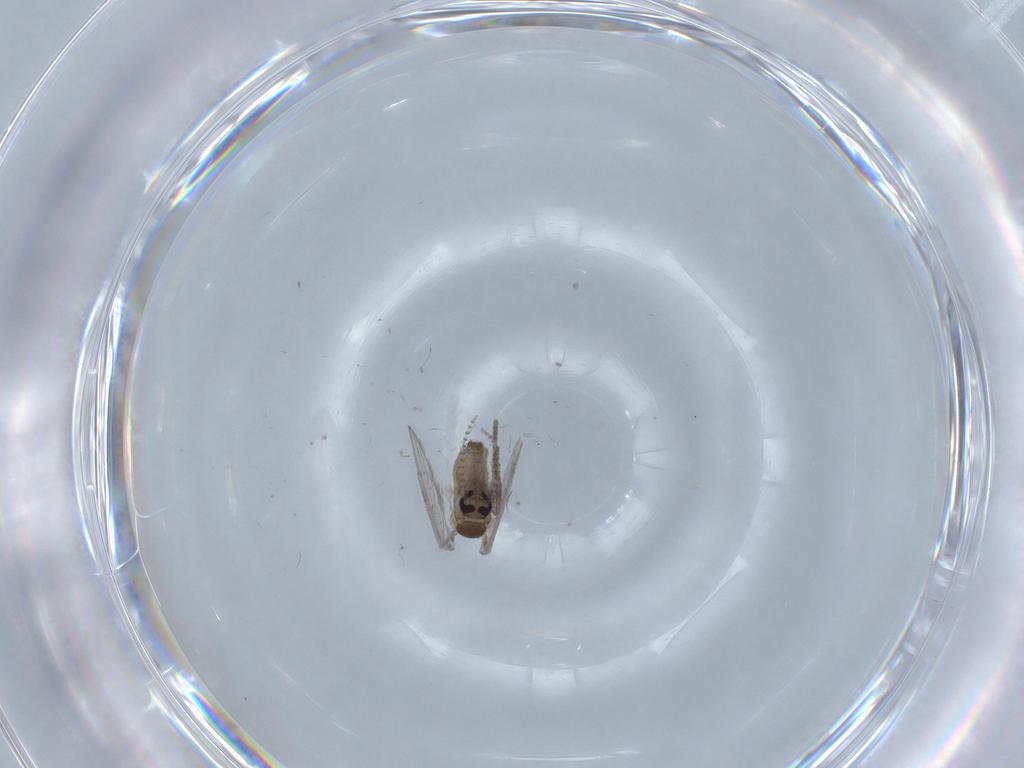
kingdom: Animalia
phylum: Arthropoda
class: Insecta
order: Diptera
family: Psychodidae
